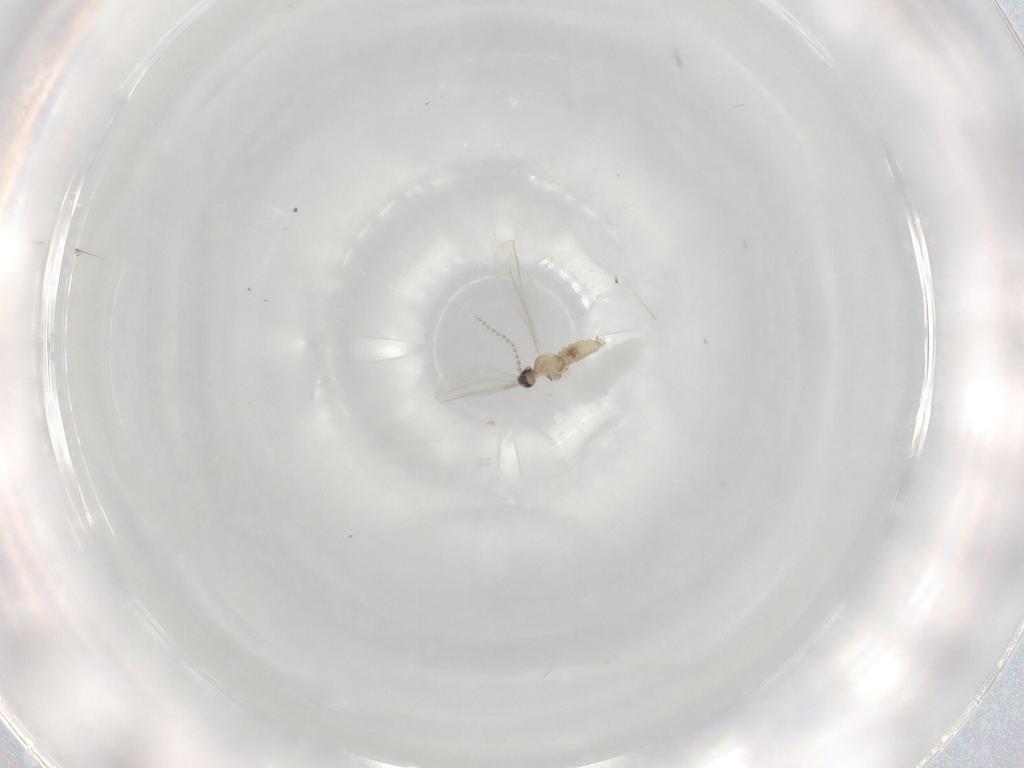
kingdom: Animalia
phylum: Arthropoda
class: Insecta
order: Diptera
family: Cecidomyiidae
